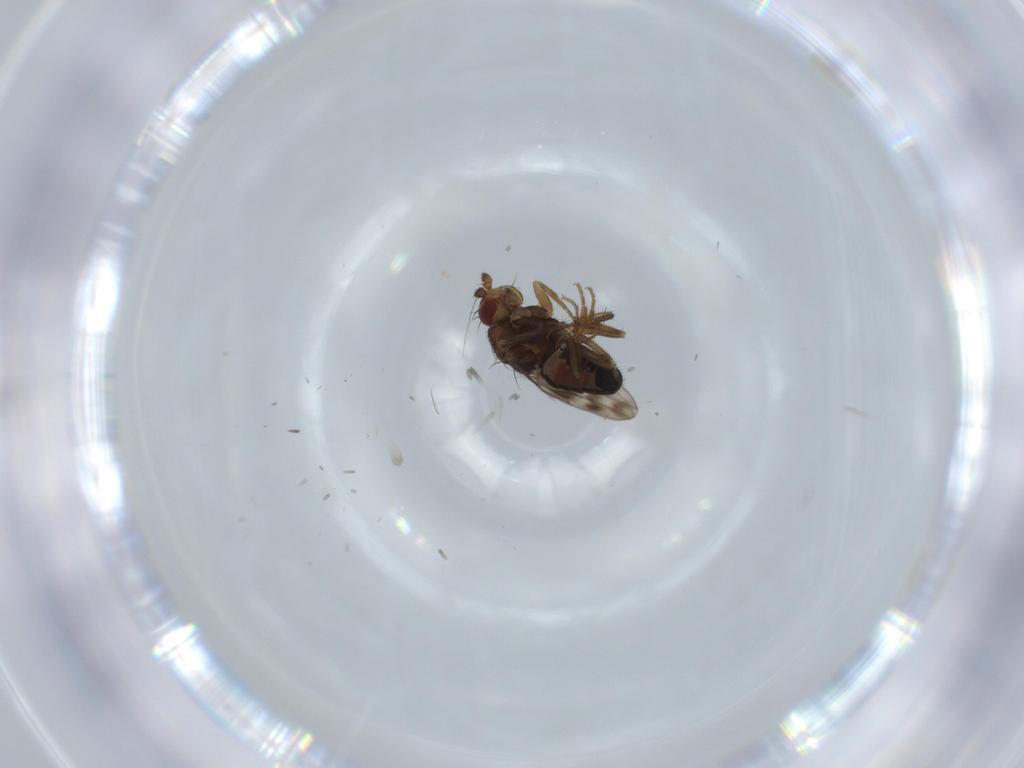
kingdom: Animalia
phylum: Arthropoda
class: Insecta
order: Diptera
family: Sphaeroceridae
